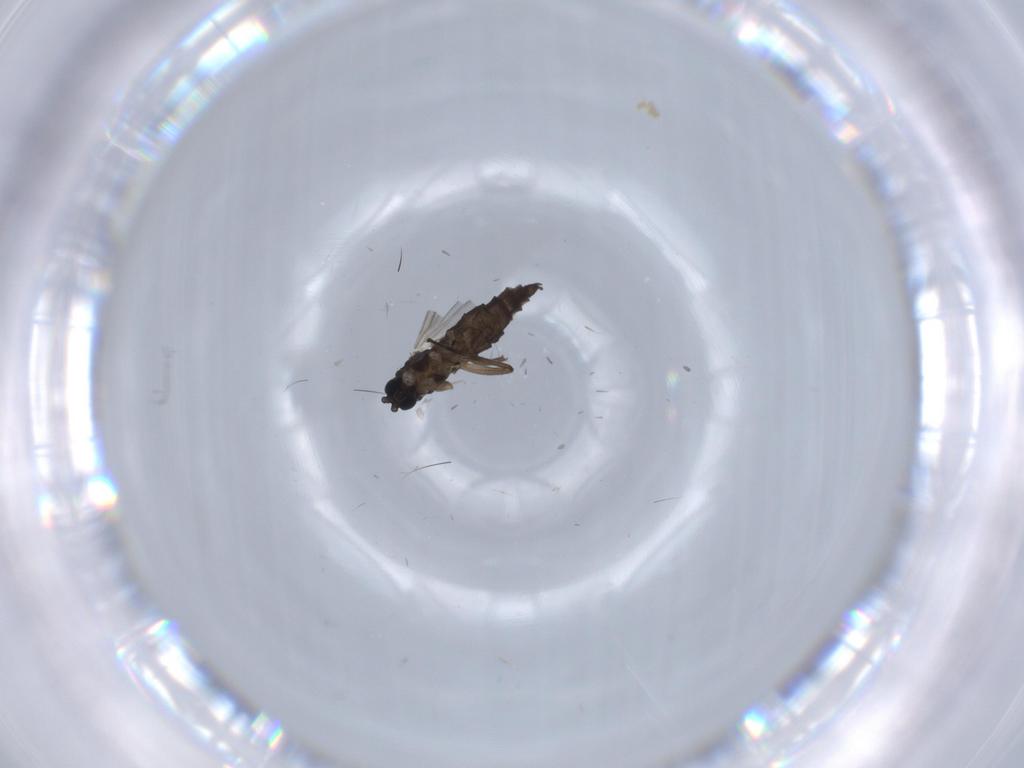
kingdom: Animalia
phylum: Arthropoda
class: Insecta
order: Diptera
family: Sciaridae
